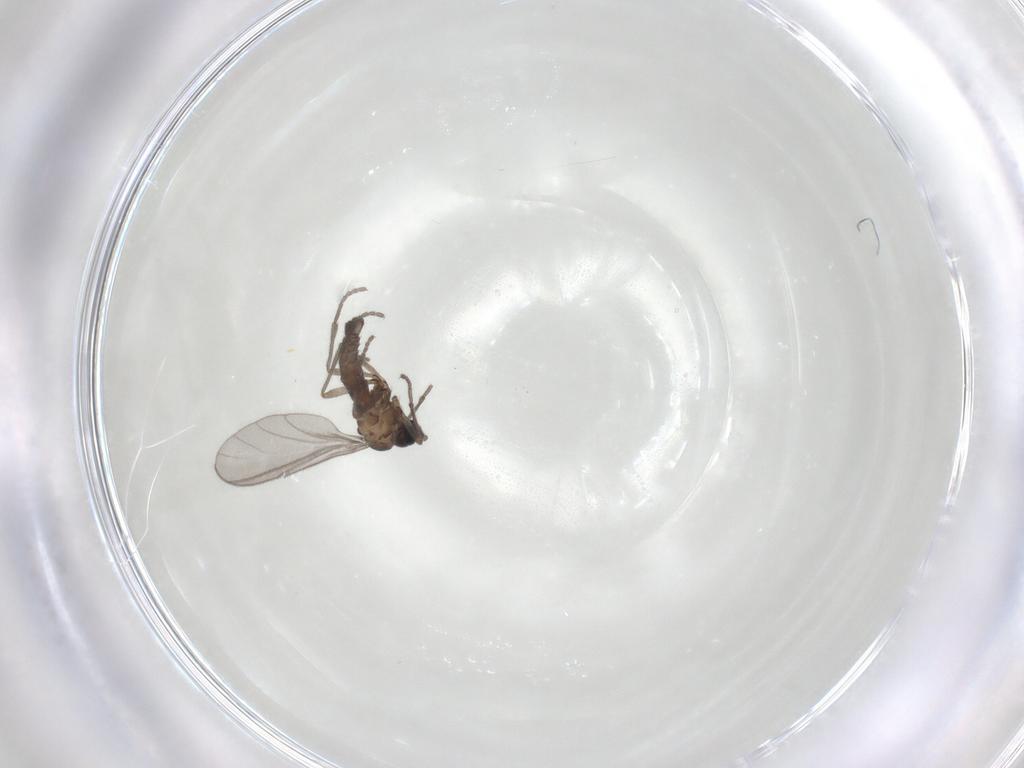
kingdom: Animalia
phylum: Arthropoda
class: Insecta
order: Diptera
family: Sciaridae
